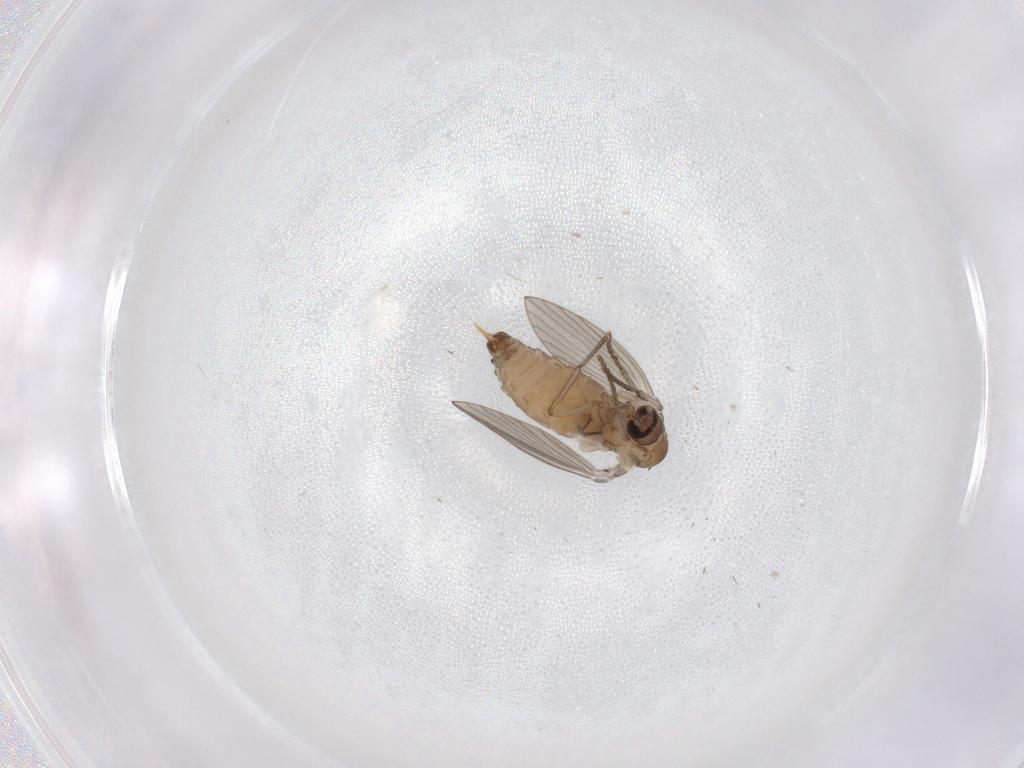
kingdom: Animalia
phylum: Arthropoda
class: Insecta
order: Diptera
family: Psychodidae
